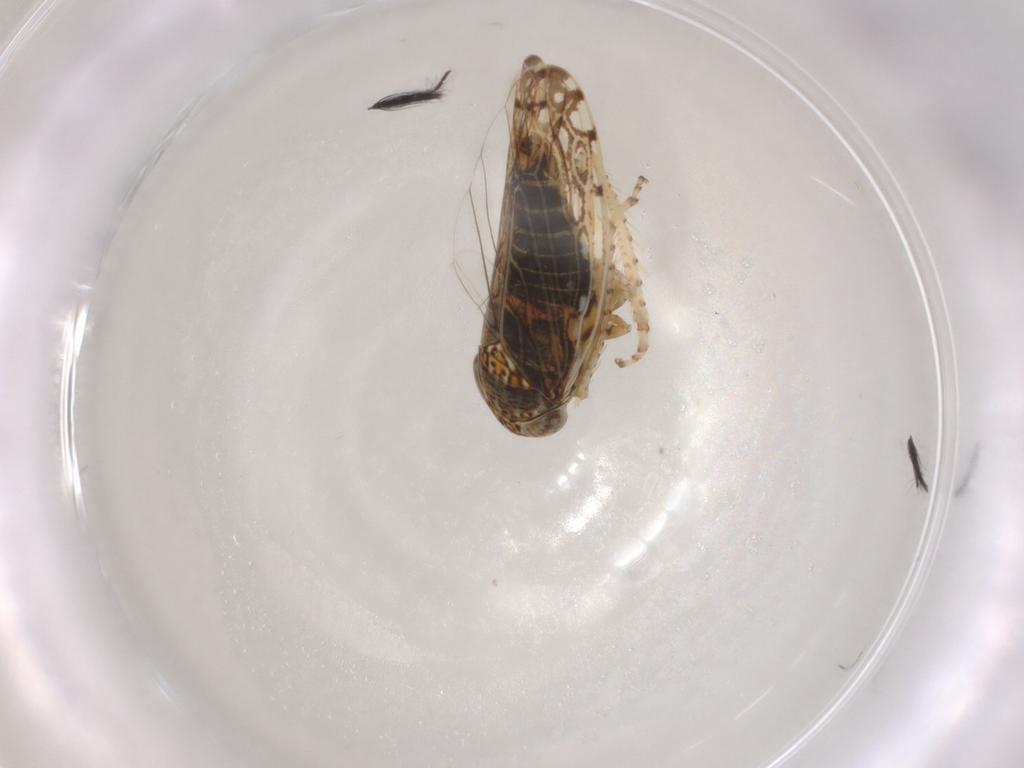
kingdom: Animalia
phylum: Arthropoda
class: Insecta
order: Hemiptera
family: Cicadellidae
